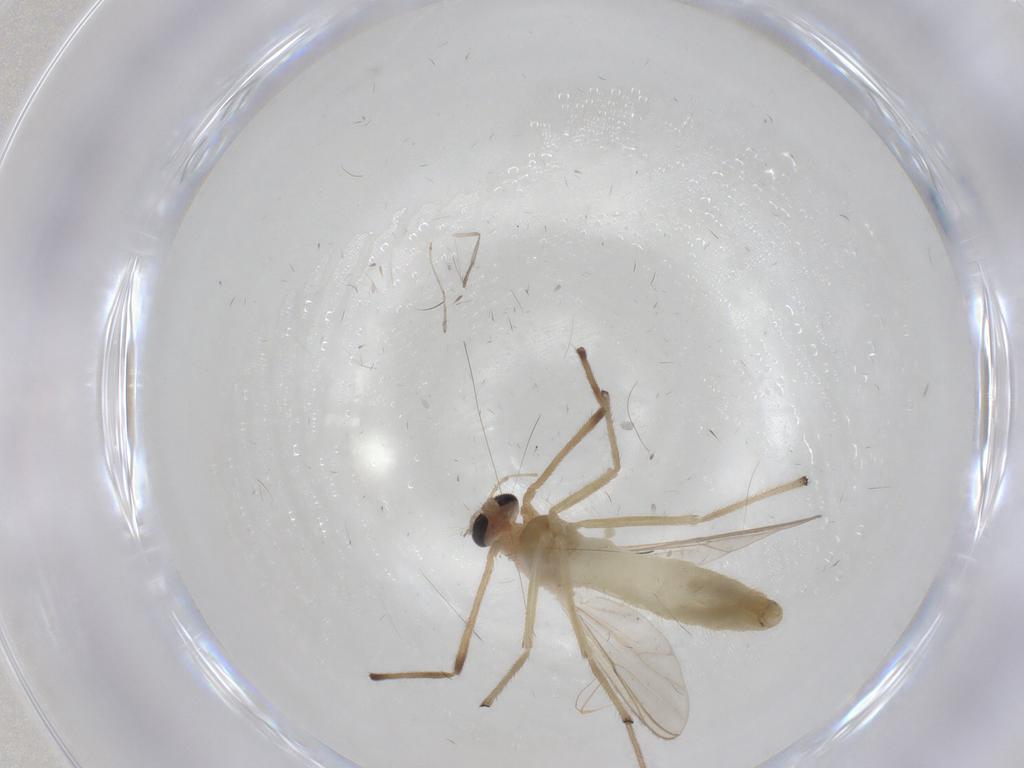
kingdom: Animalia
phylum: Arthropoda
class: Insecta
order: Diptera
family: Pipunculidae
